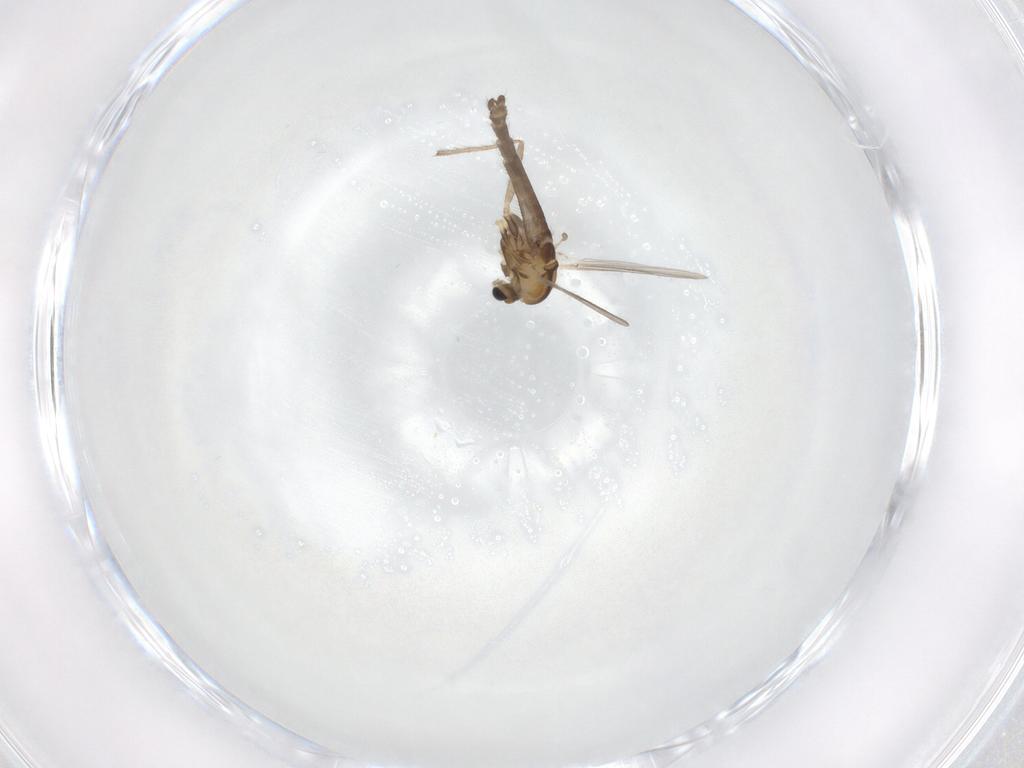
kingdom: Animalia
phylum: Arthropoda
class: Insecta
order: Diptera
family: Chironomidae
